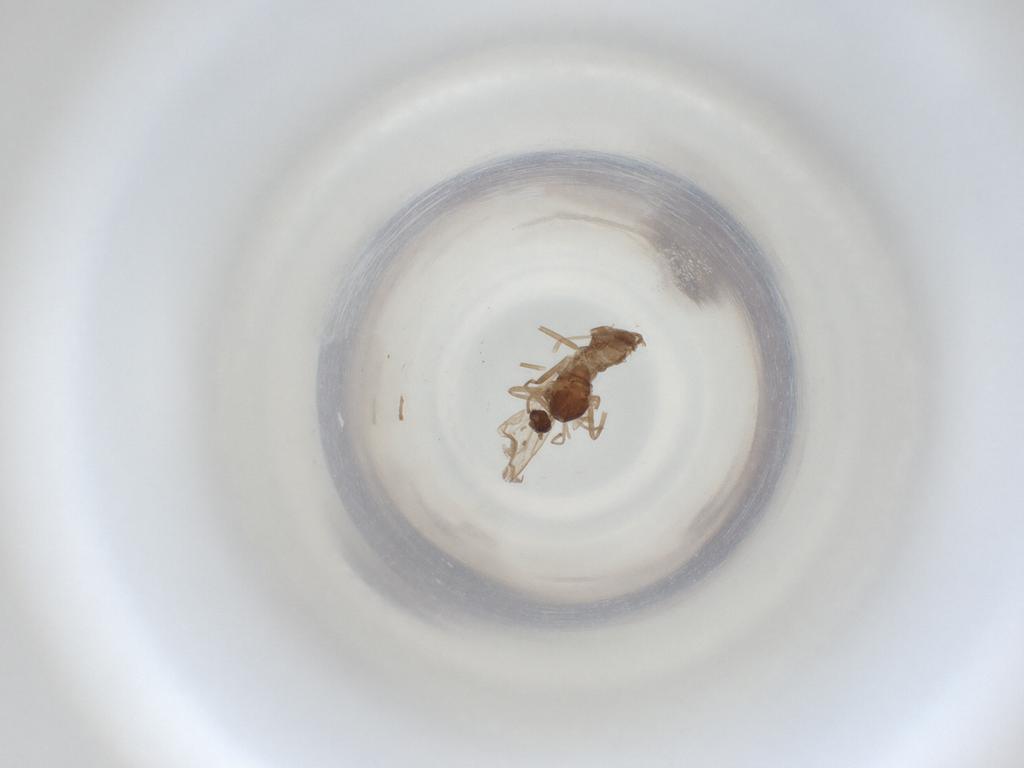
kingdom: Animalia
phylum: Arthropoda
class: Insecta
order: Diptera
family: Cecidomyiidae
